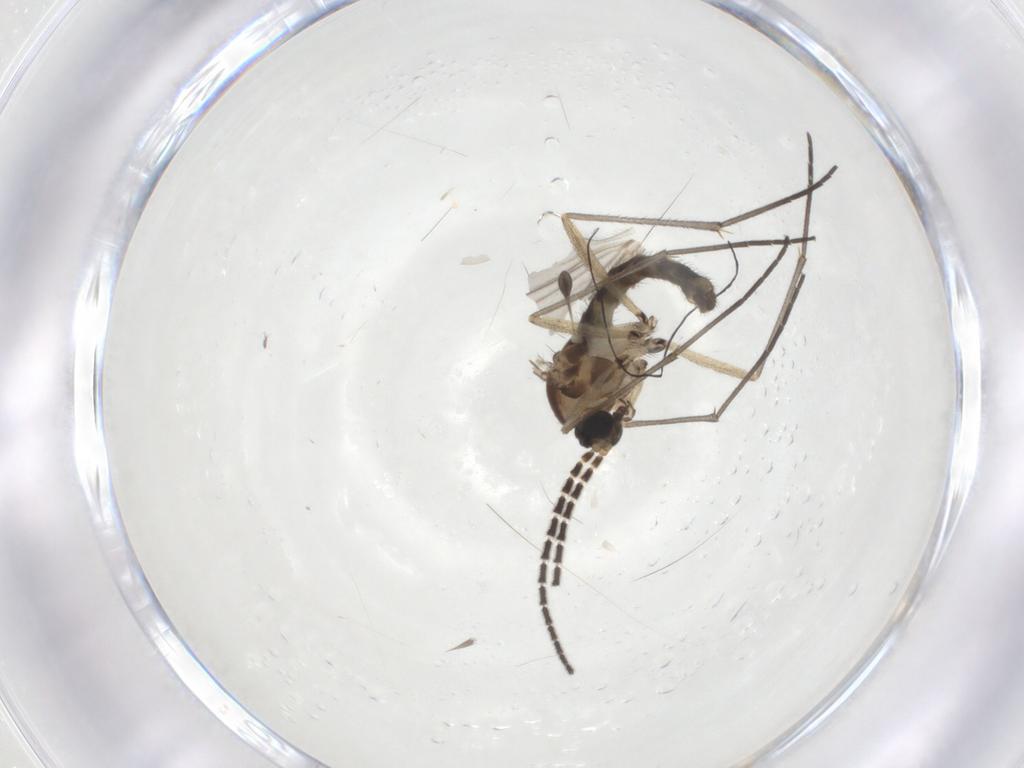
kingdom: Animalia
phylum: Arthropoda
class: Insecta
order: Diptera
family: Sciaridae
